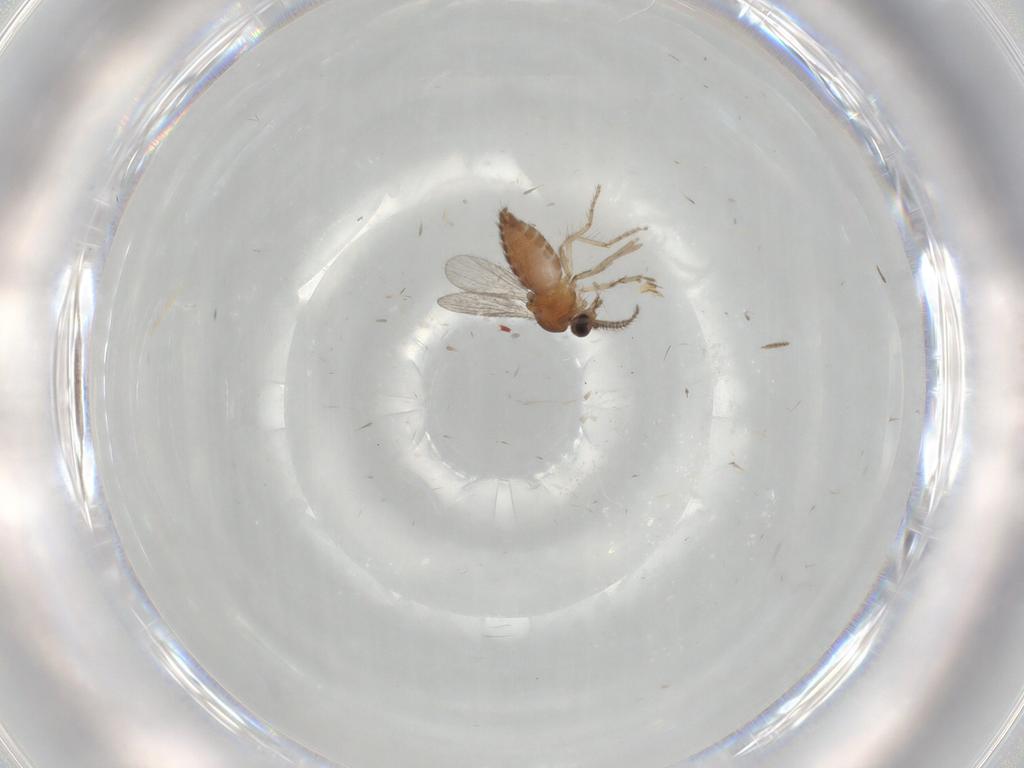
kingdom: Animalia
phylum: Arthropoda
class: Insecta
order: Diptera
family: Ceratopogonidae
